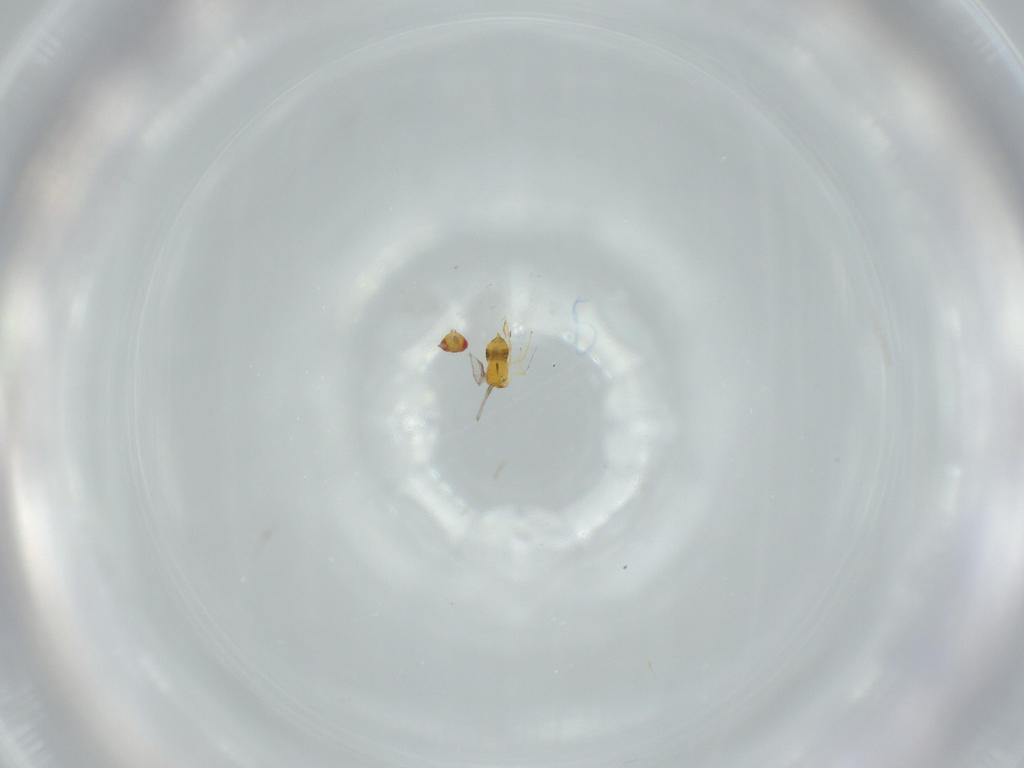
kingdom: Animalia
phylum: Arthropoda
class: Insecta
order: Hymenoptera
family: Trichogrammatidae
